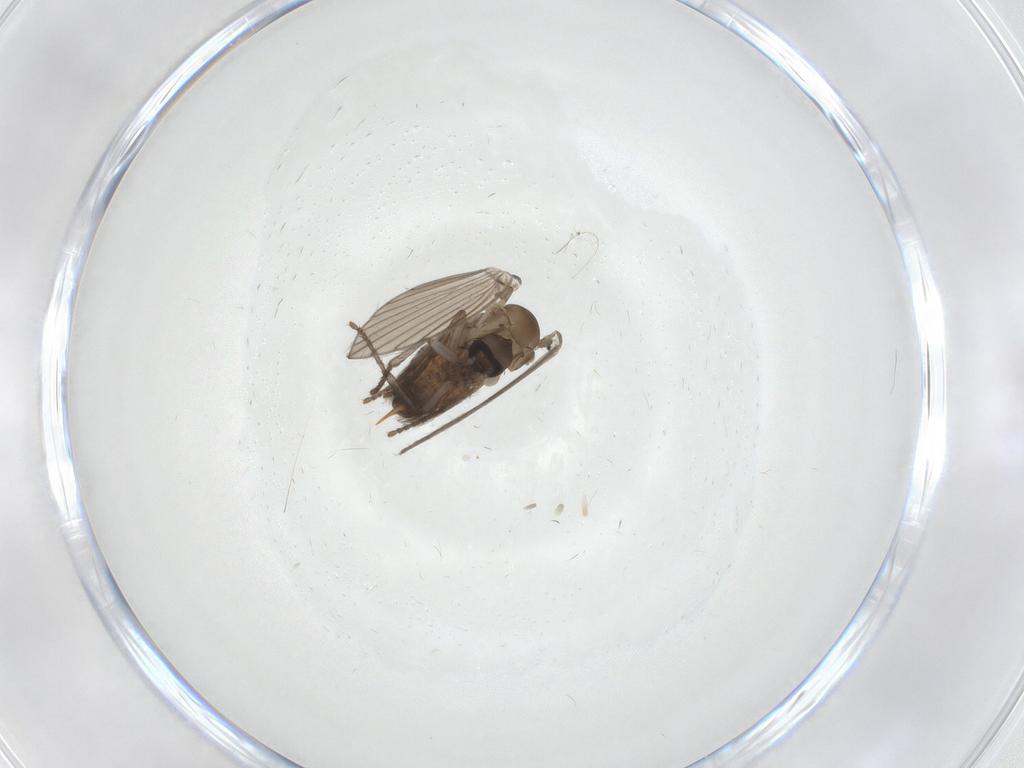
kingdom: Animalia
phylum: Arthropoda
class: Insecta
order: Diptera
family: Psychodidae
